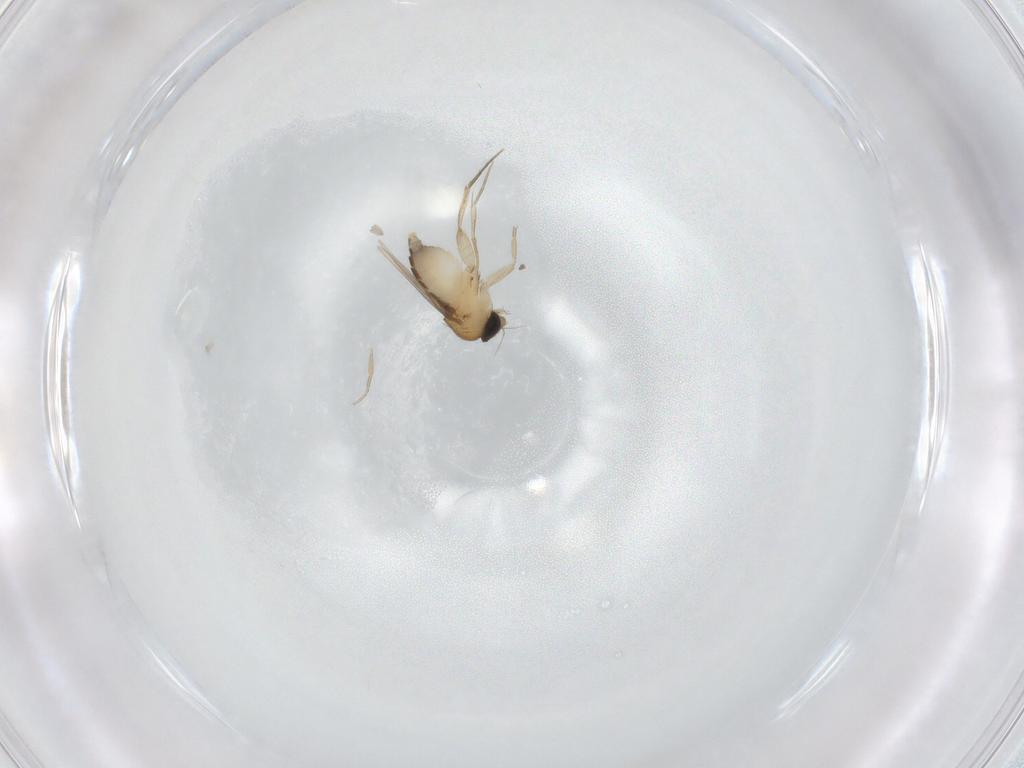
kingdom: Animalia
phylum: Arthropoda
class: Insecta
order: Diptera
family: Phoridae
